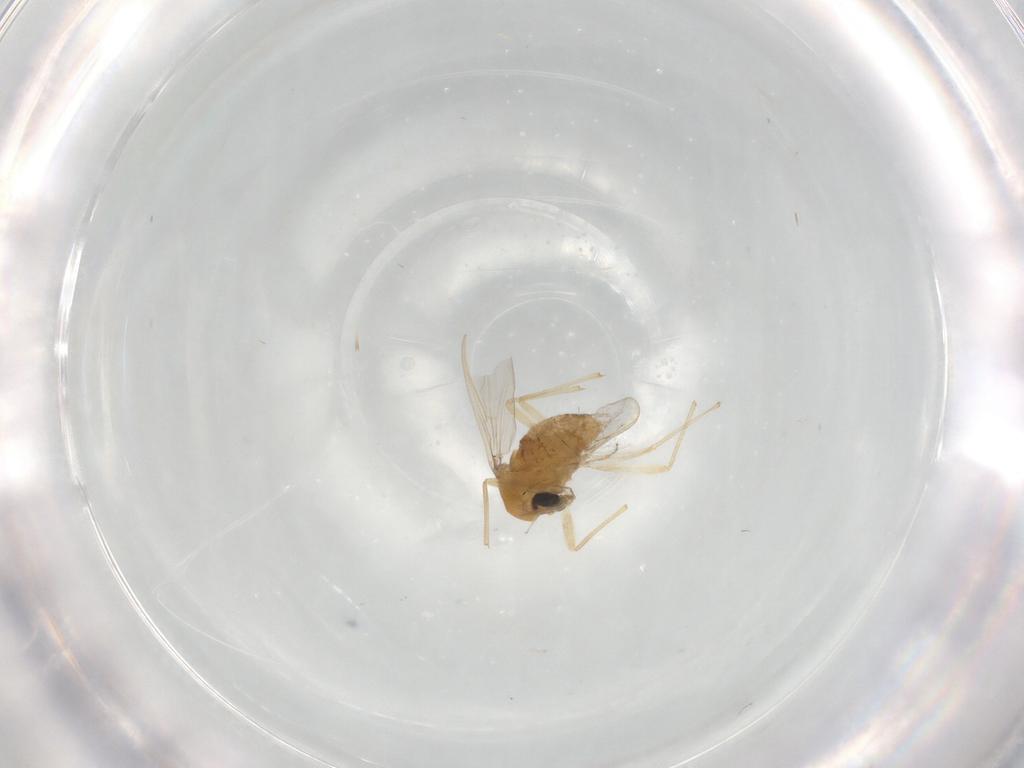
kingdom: Animalia
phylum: Arthropoda
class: Insecta
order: Diptera
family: Chironomidae
